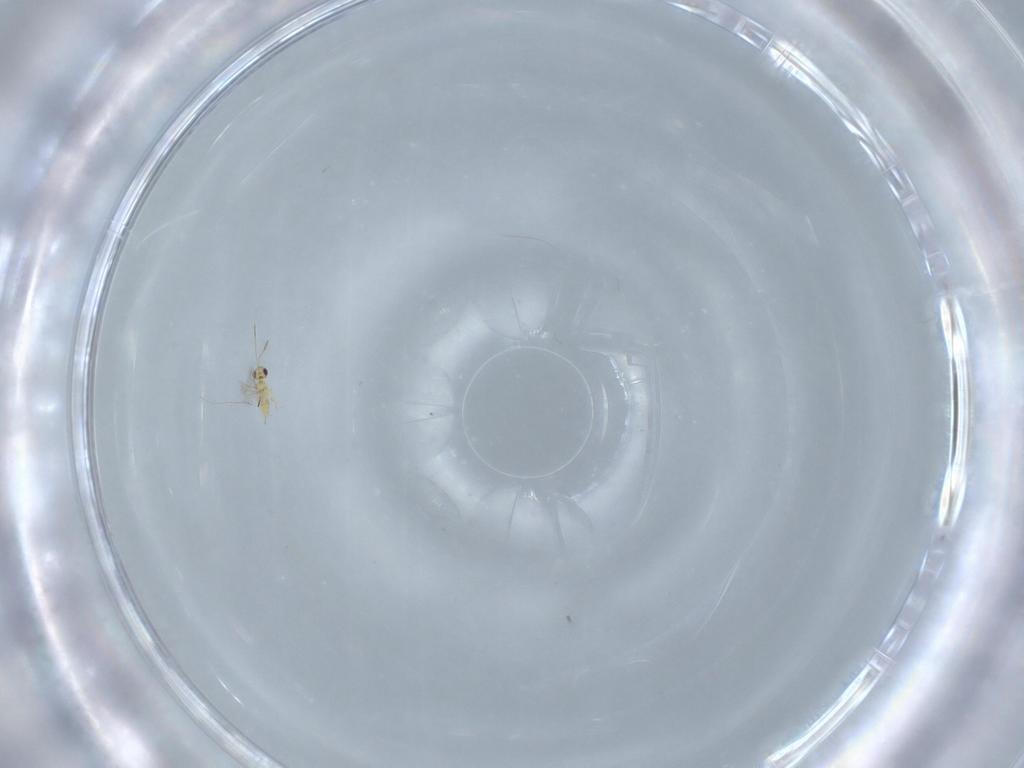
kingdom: Animalia
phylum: Arthropoda
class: Insecta
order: Hymenoptera
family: Mymaridae
